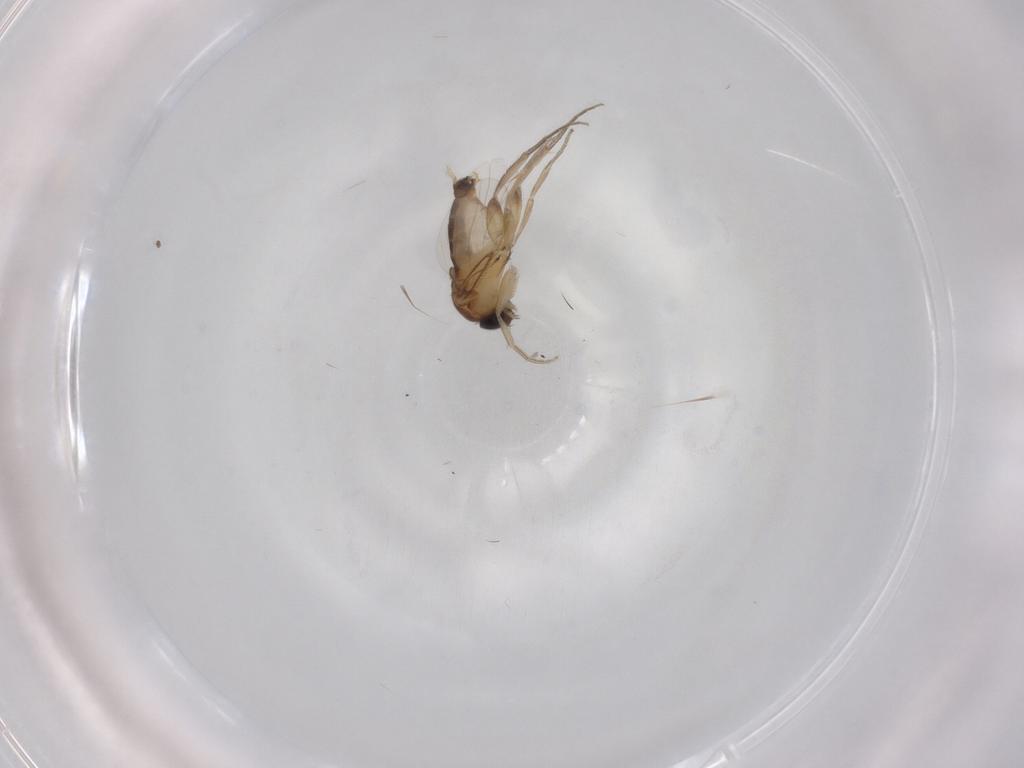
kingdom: Animalia
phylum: Arthropoda
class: Insecta
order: Diptera
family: Phoridae
